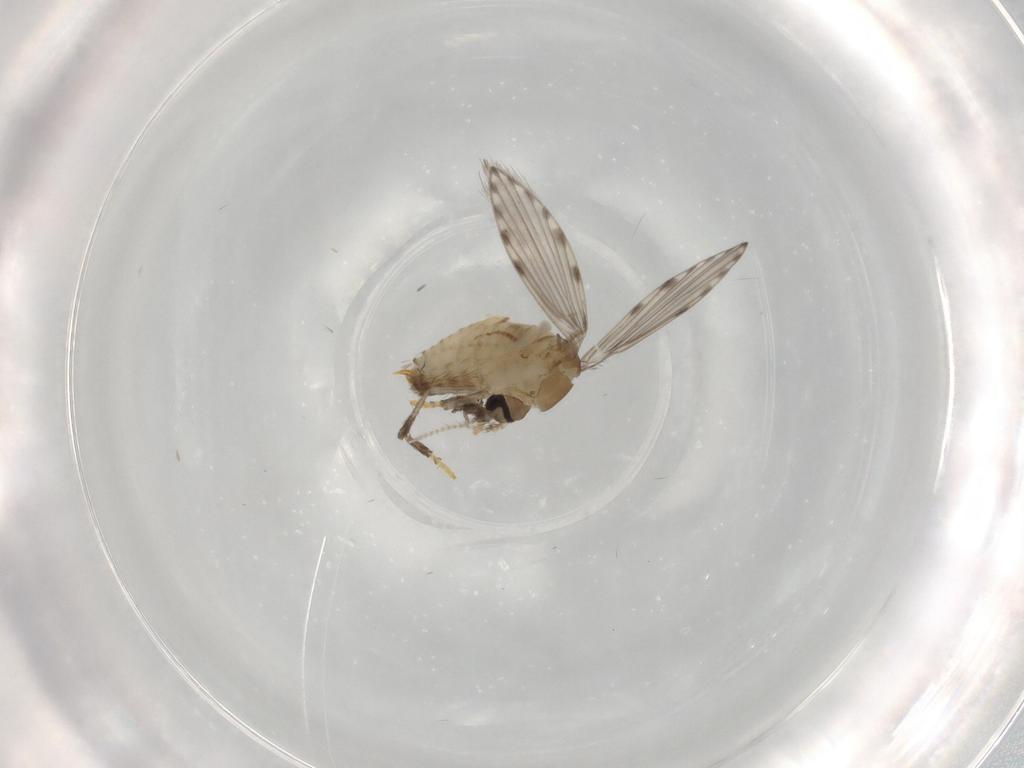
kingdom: Animalia
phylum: Arthropoda
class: Insecta
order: Diptera
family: Psychodidae
